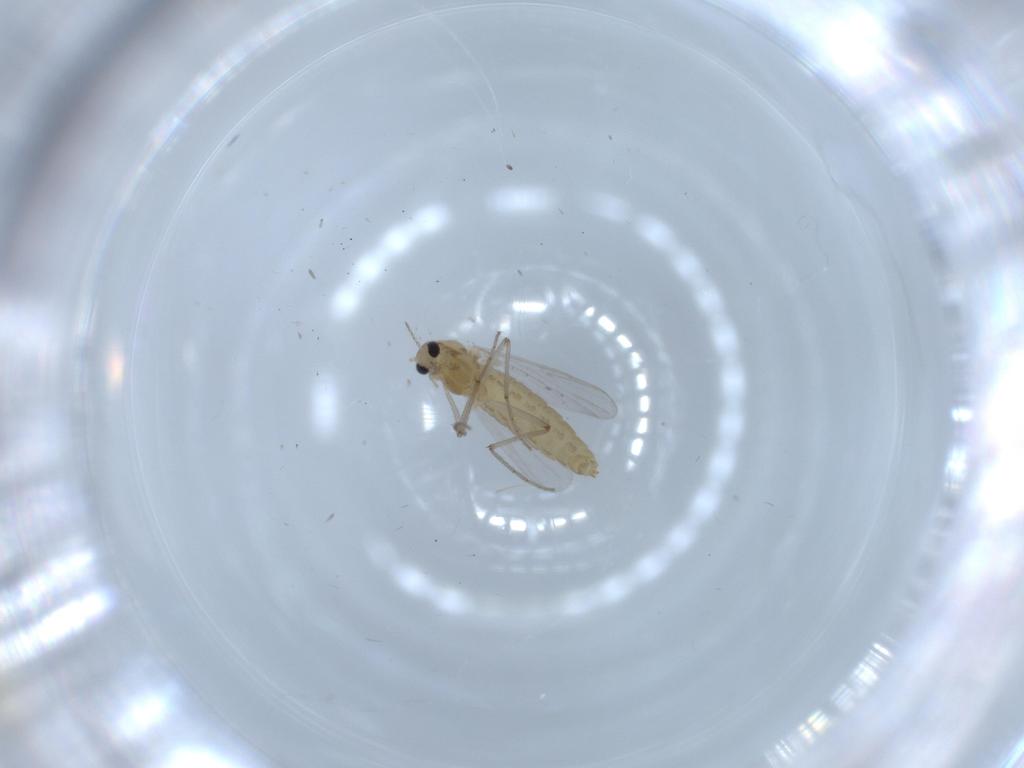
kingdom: Animalia
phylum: Arthropoda
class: Insecta
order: Diptera
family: Chironomidae
